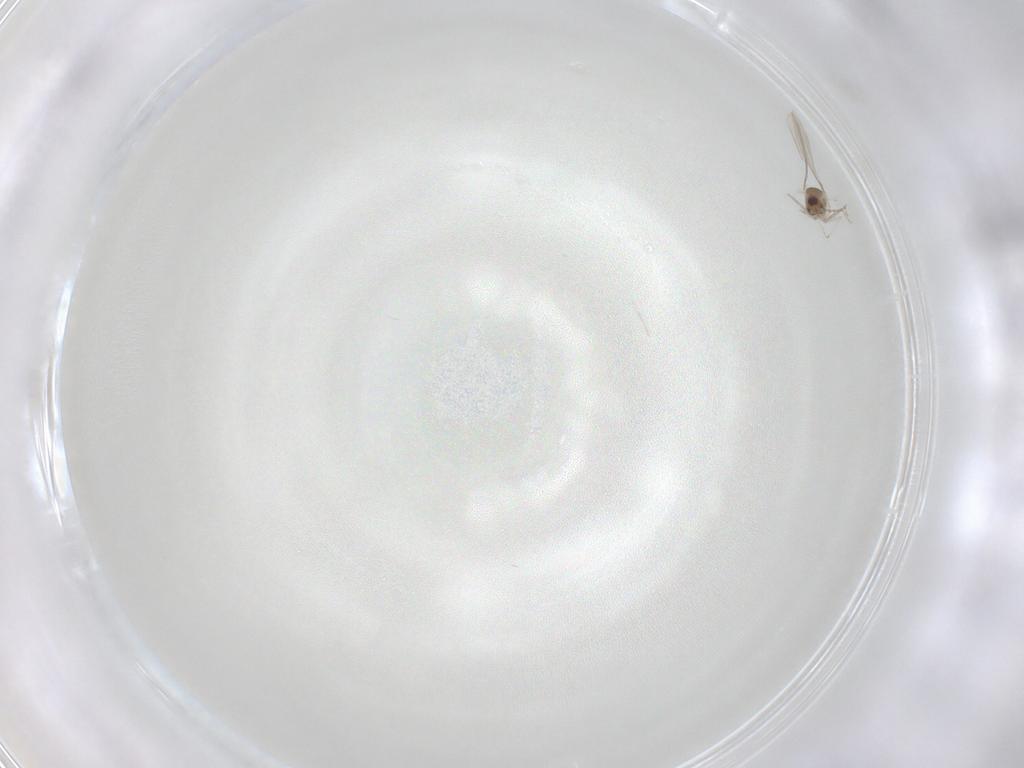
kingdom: Animalia
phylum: Arthropoda
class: Insecta
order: Diptera
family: Cecidomyiidae
